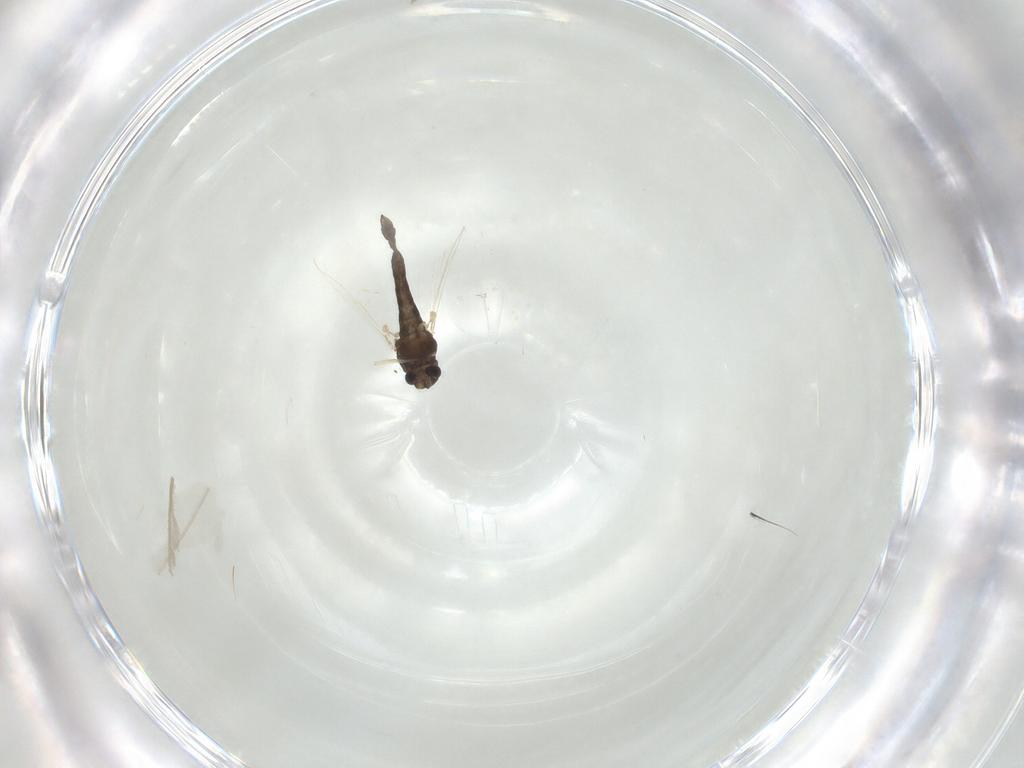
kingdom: Animalia
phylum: Arthropoda
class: Insecta
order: Diptera
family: Chironomidae
